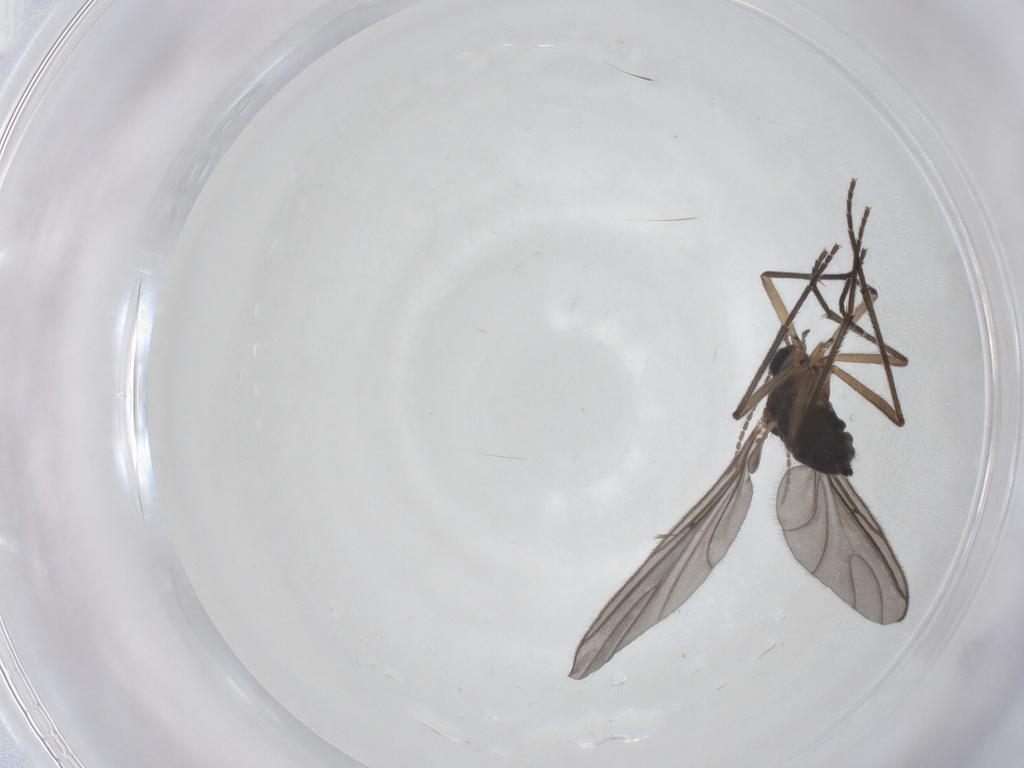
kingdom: Animalia
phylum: Arthropoda
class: Insecta
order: Diptera
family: Sciaridae
